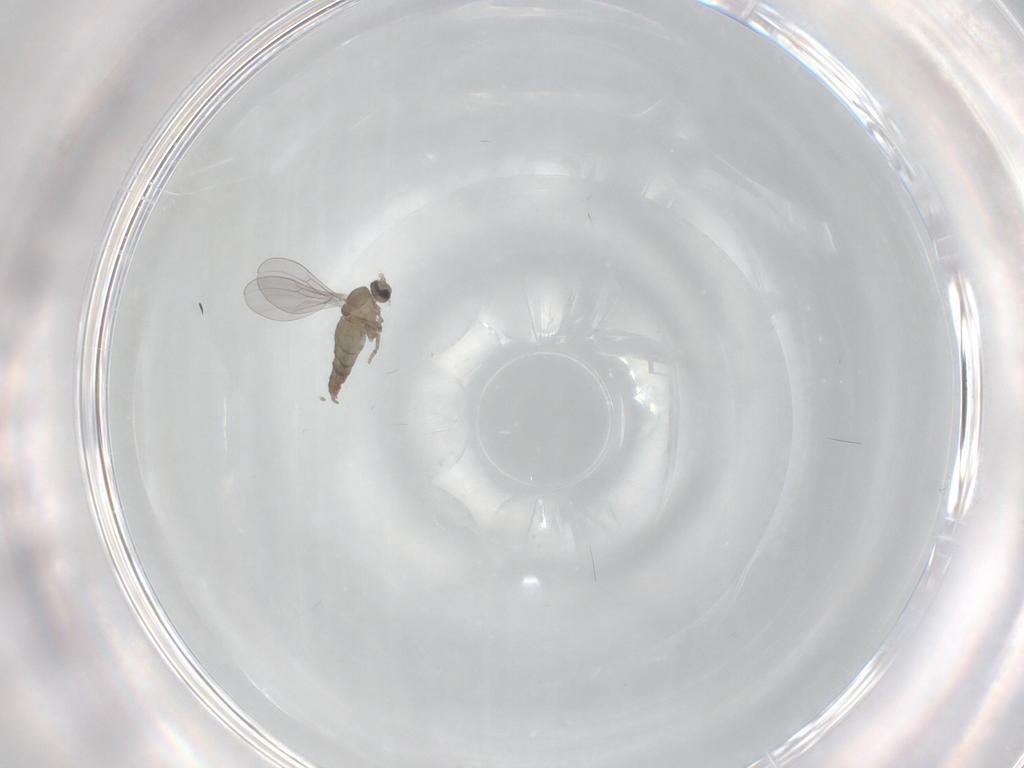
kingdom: Animalia
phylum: Arthropoda
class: Insecta
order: Diptera
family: Cecidomyiidae
